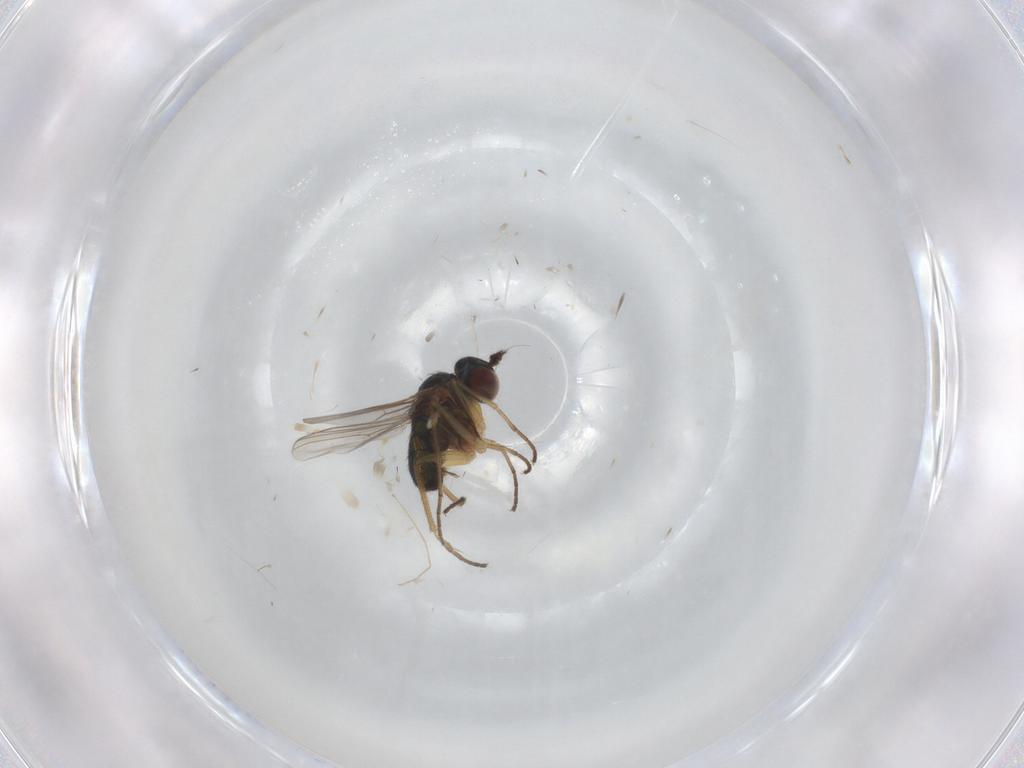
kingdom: Animalia
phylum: Arthropoda
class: Insecta
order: Diptera
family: Dolichopodidae
